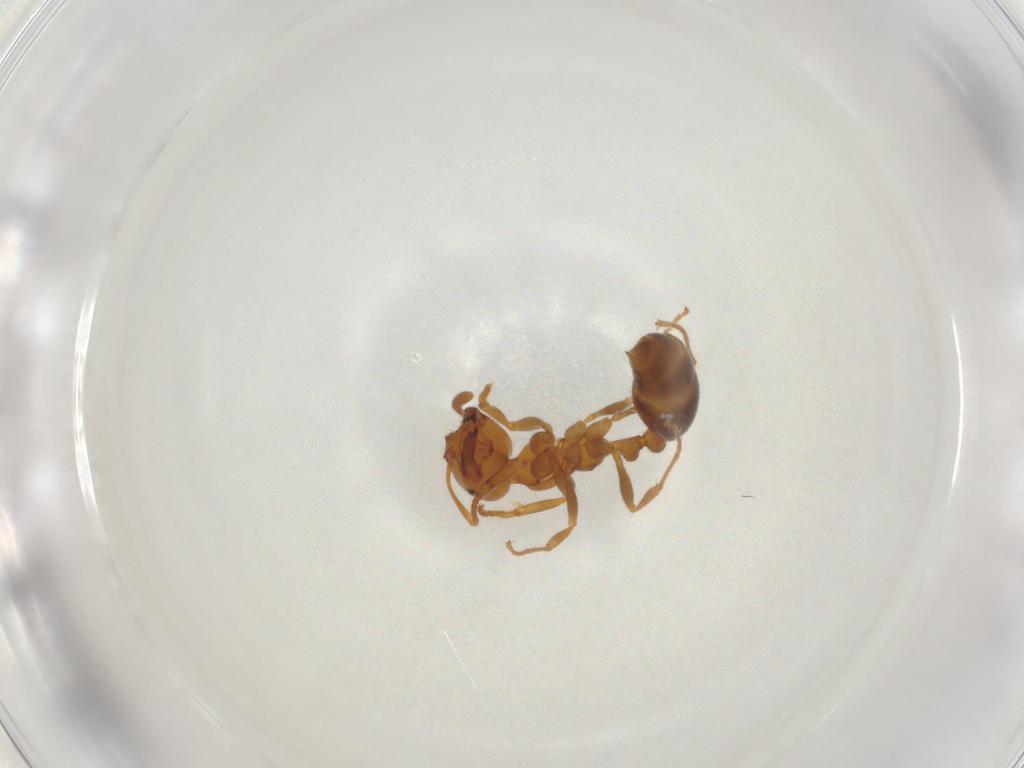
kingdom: Animalia
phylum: Arthropoda
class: Insecta
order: Hymenoptera
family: Formicidae
